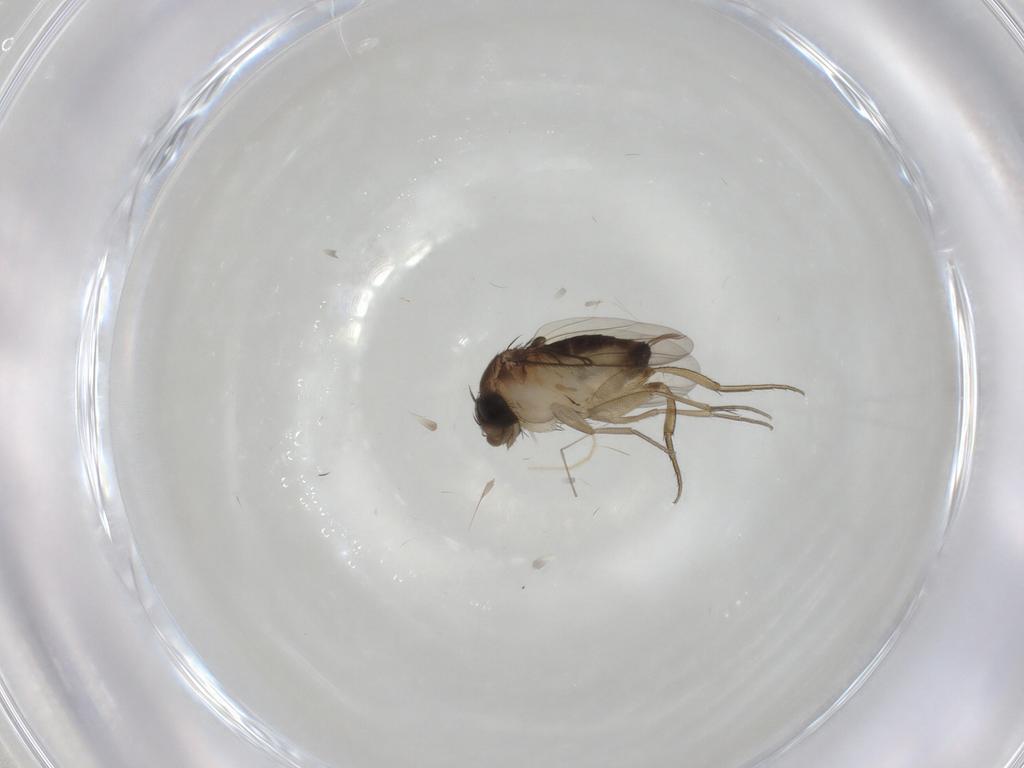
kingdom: Animalia
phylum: Arthropoda
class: Insecta
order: Diptera
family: Phoridae
